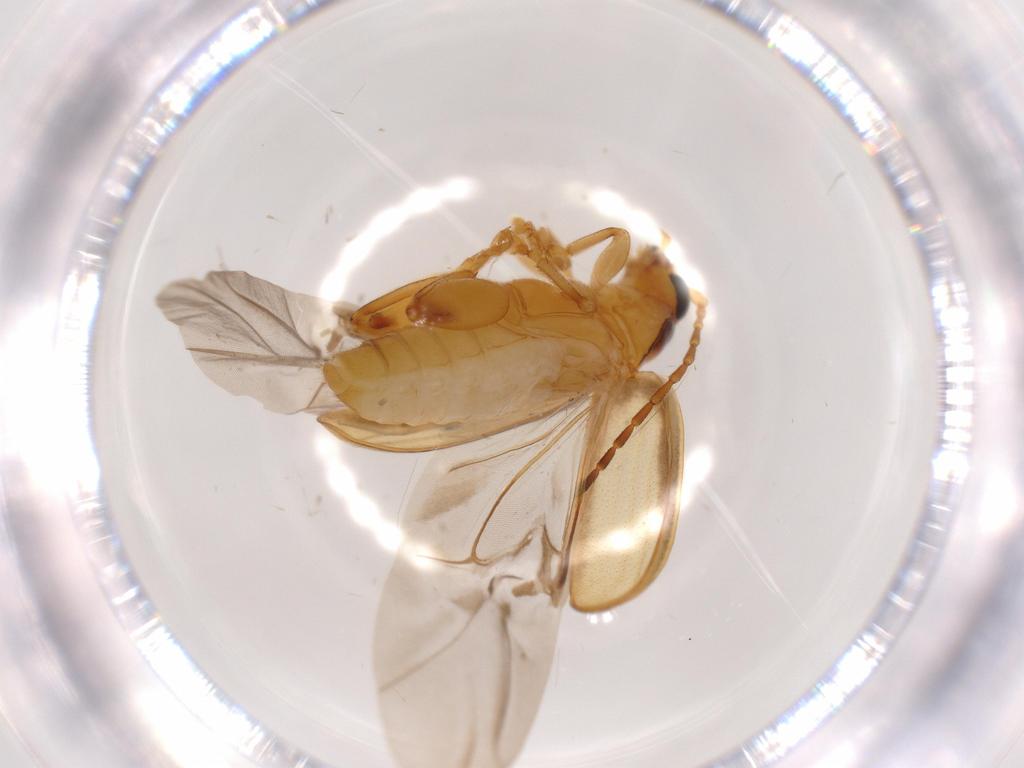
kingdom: Animalia
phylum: Arthropoda
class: Insecta
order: Coleoptera
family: Chrysomelidae
